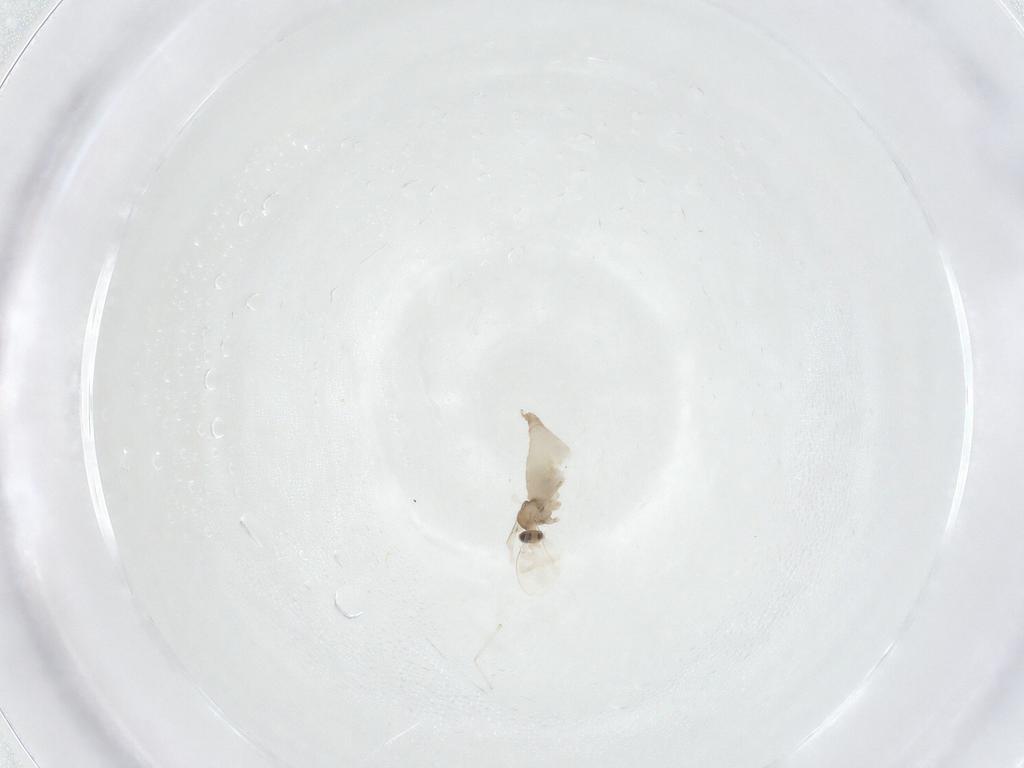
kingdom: Animalia
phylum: Arthropoda
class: Insecta
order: Diptera
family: Cecidomyiidae
